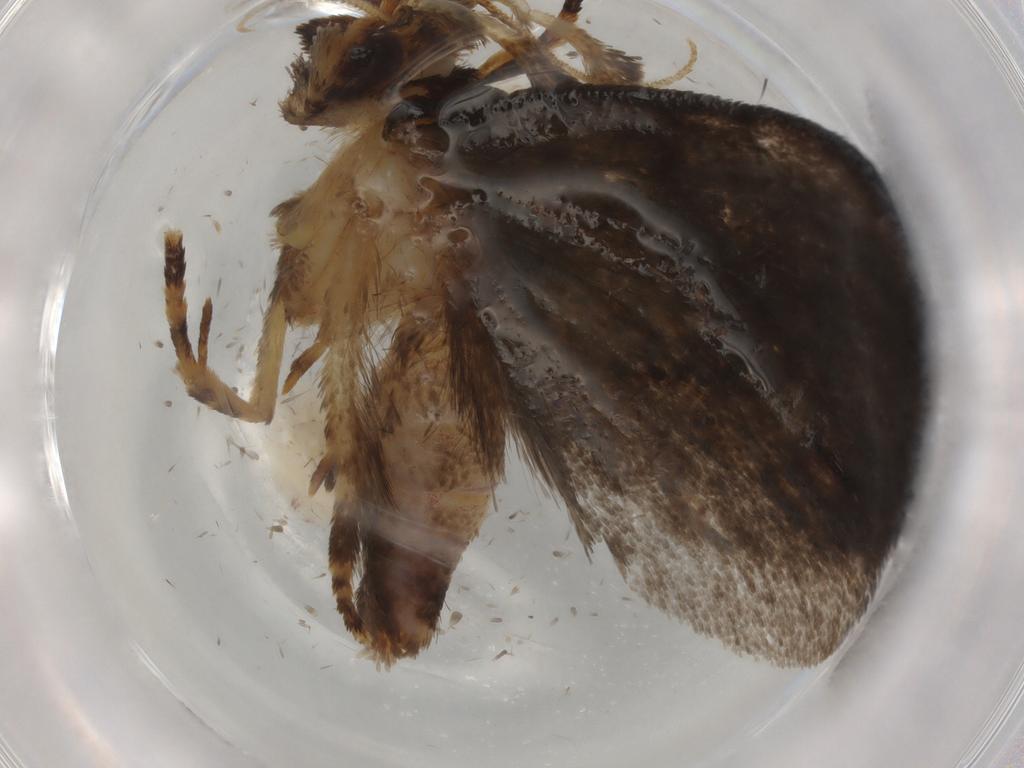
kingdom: Animalia
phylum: Arthropoda
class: Insecta
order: Lepidoptera
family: Tineidae
